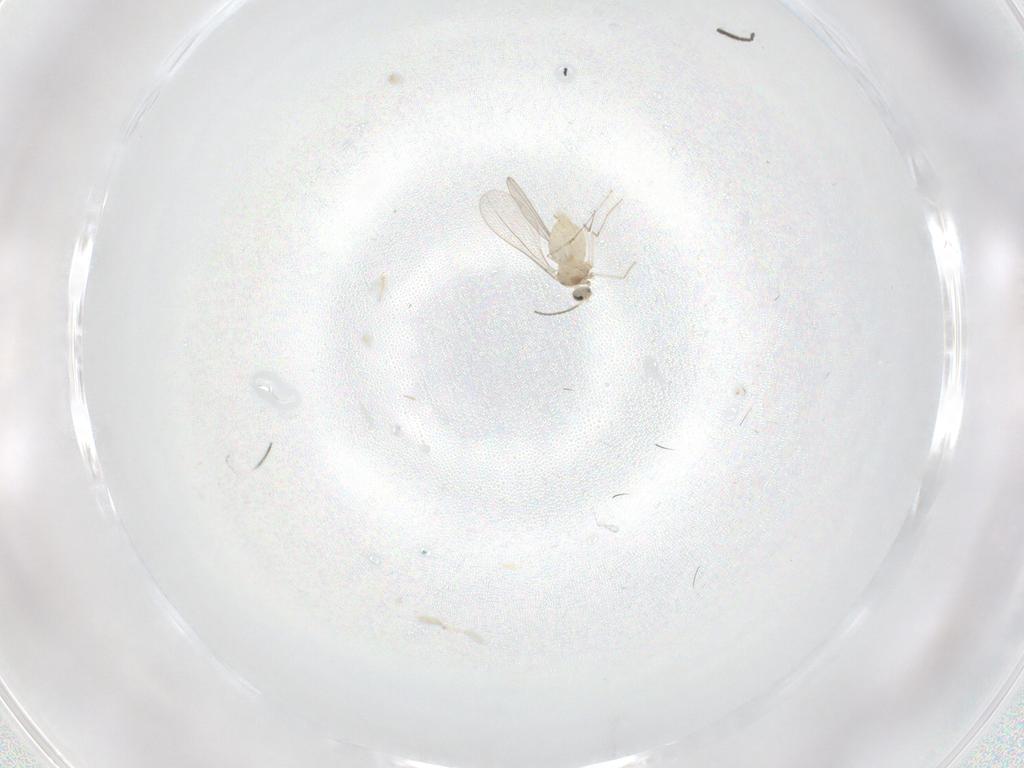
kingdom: Animalia
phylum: Arthropoda
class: Insecta
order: Diptera
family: Cecidomyiidae
